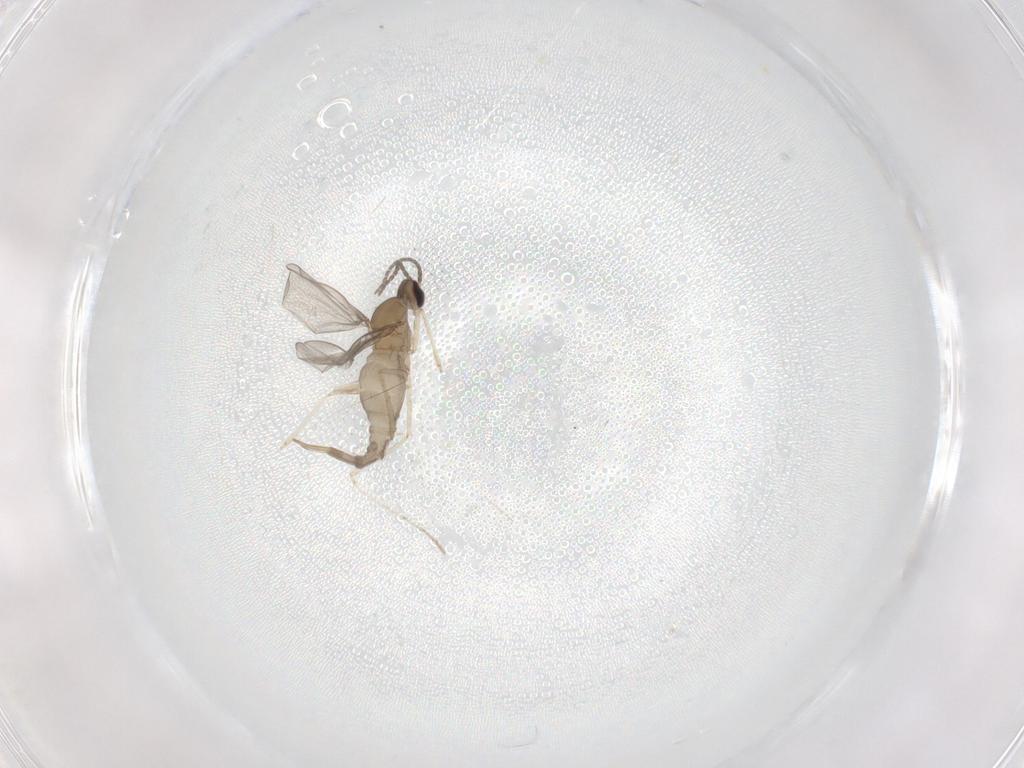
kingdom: Animalia
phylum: Arthropoda
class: Insecta
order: Diptera
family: Cecidomyiidae
